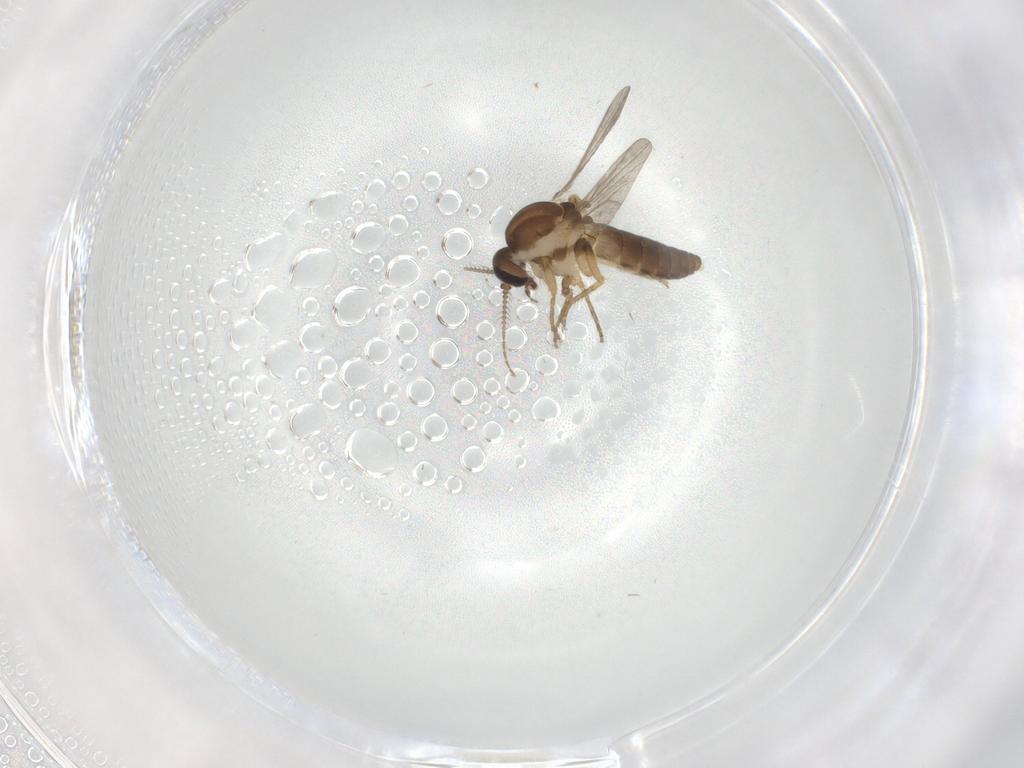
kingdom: Animalia
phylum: Arthropoda
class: Insecta
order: Diptera
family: Ceratopogonidae
